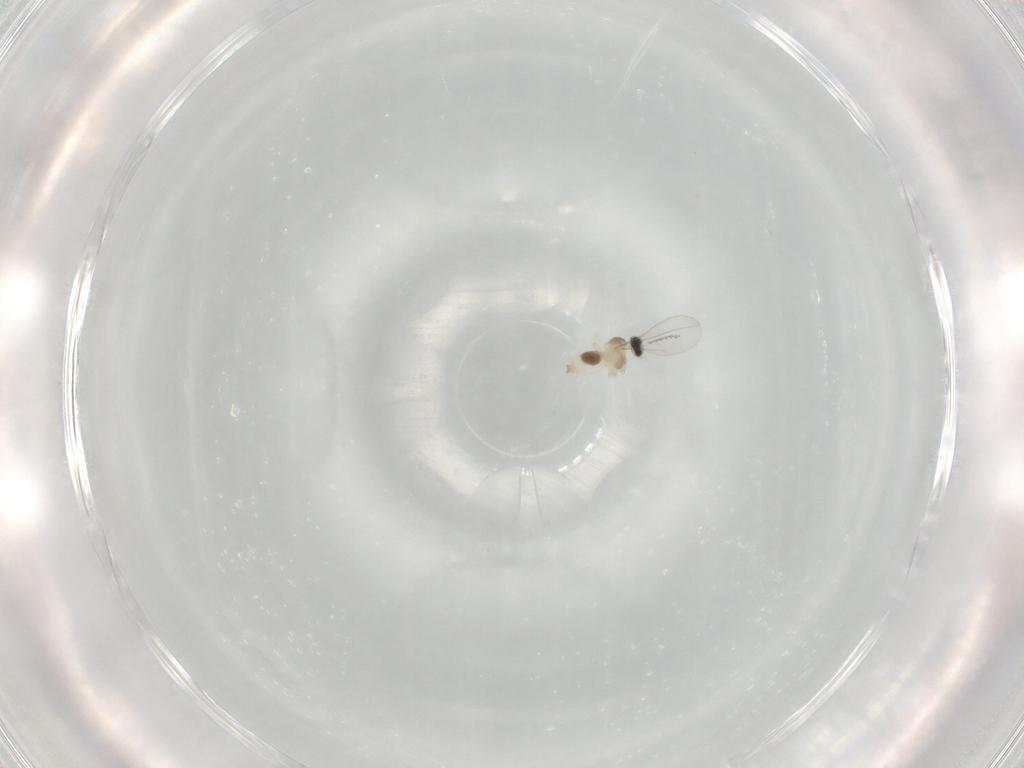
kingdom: Animalia
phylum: Arthropoda
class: Insecta
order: Diptera
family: Cecidomyiidae
